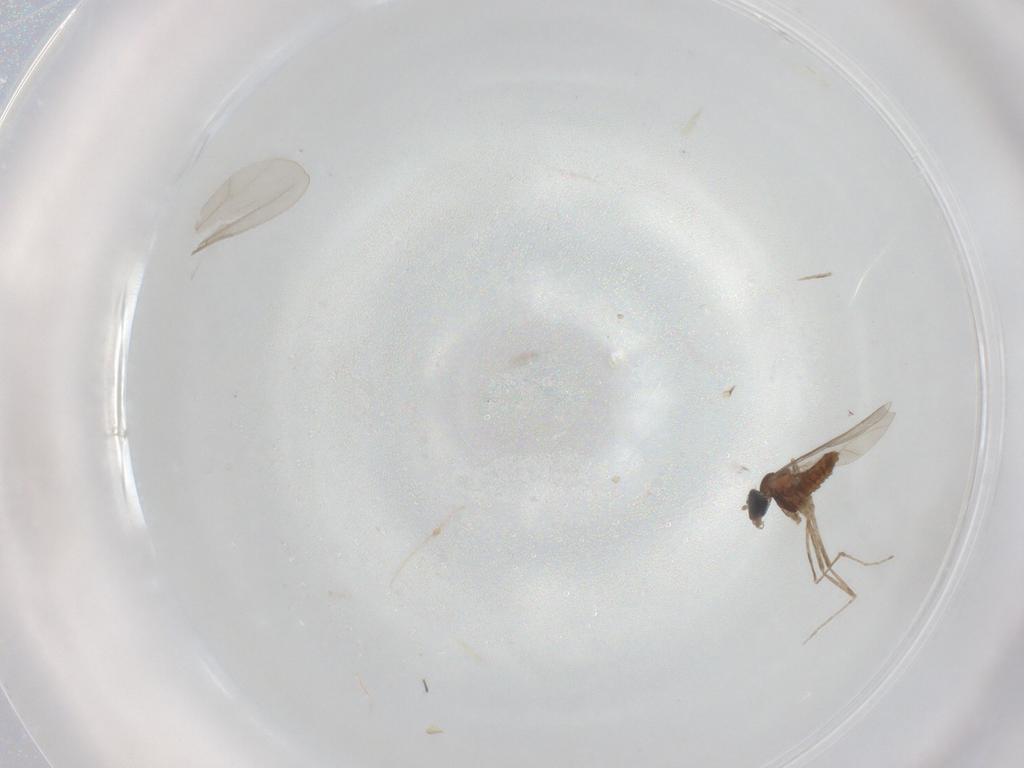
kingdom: Animalia
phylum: Arthropoda
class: Insecta
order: Diptera
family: Cecidomyiidae
